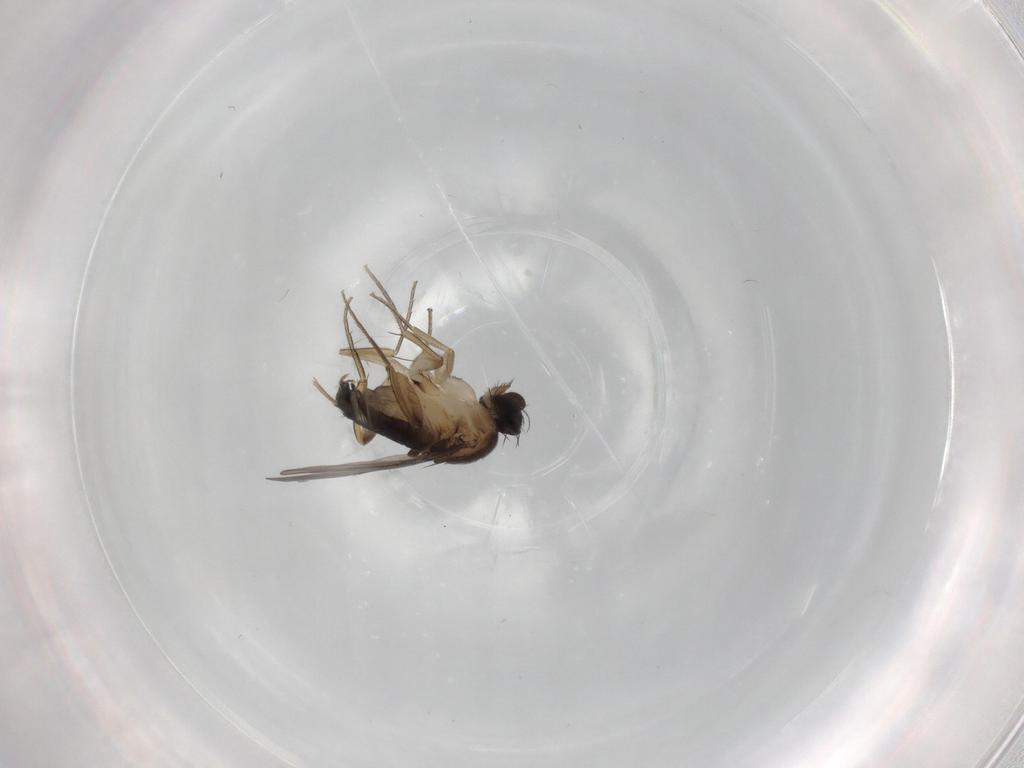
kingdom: Animalia
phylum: Arthropoda
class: Insecta
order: Diptera
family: Phoridae
